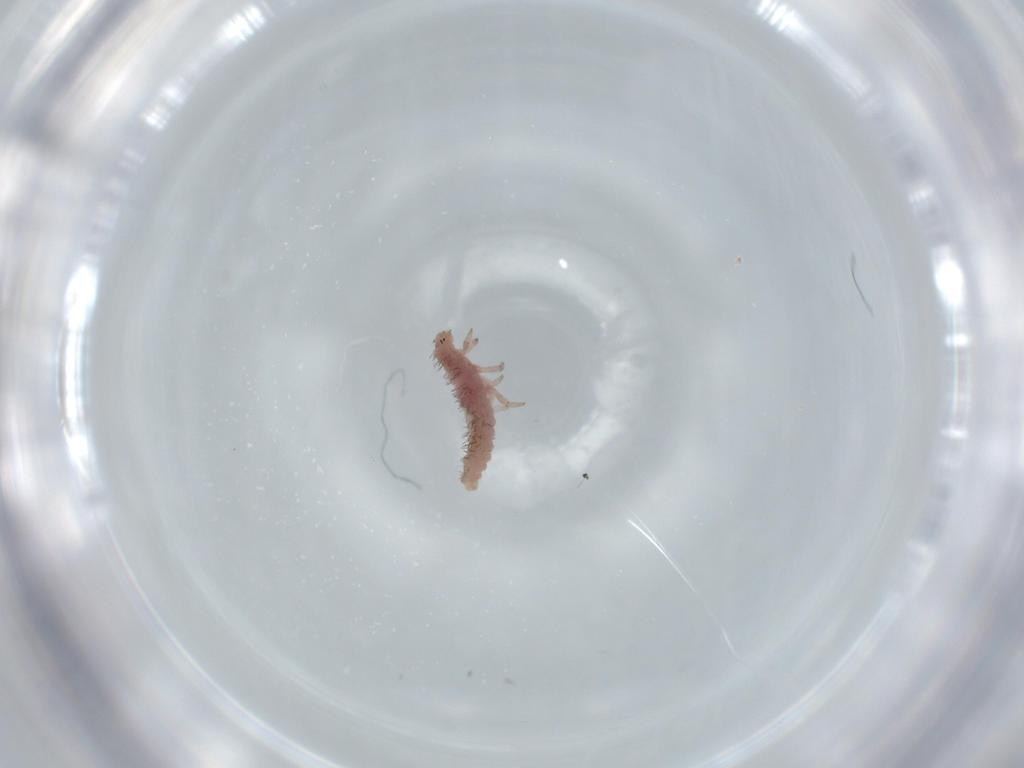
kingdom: Animalia
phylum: Arthropoda
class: Insecta
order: Coleoptera
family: Coccinellidae
